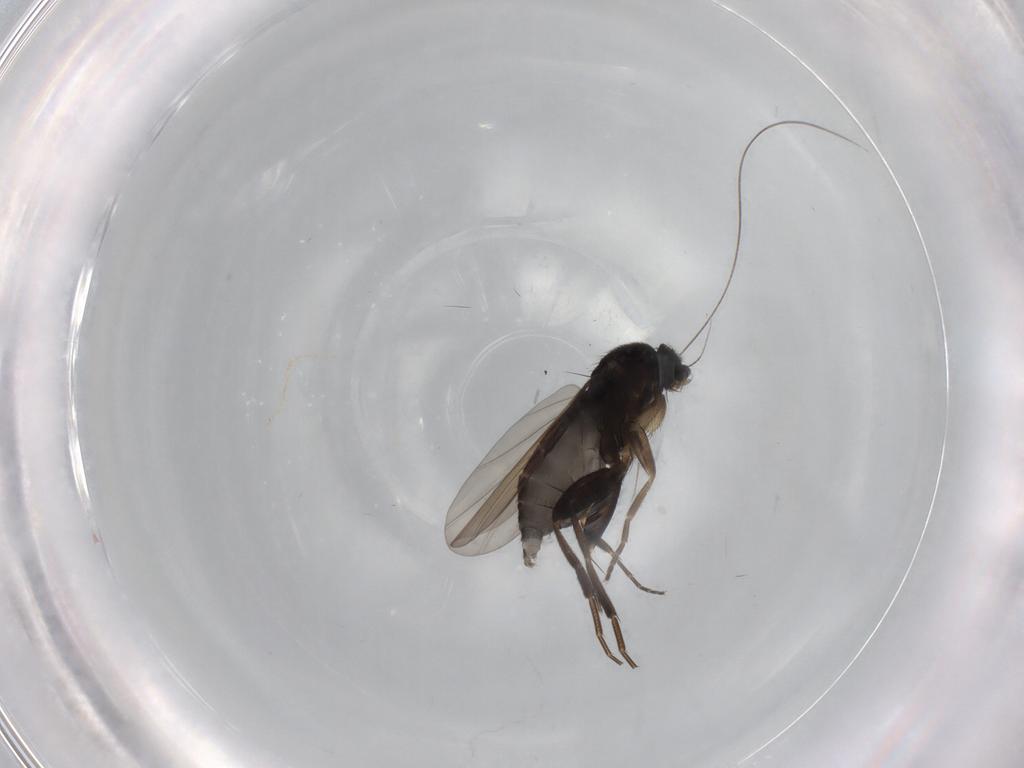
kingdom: Animalia
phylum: Arthropoda
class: Insecta
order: Diptera
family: Phoridae
